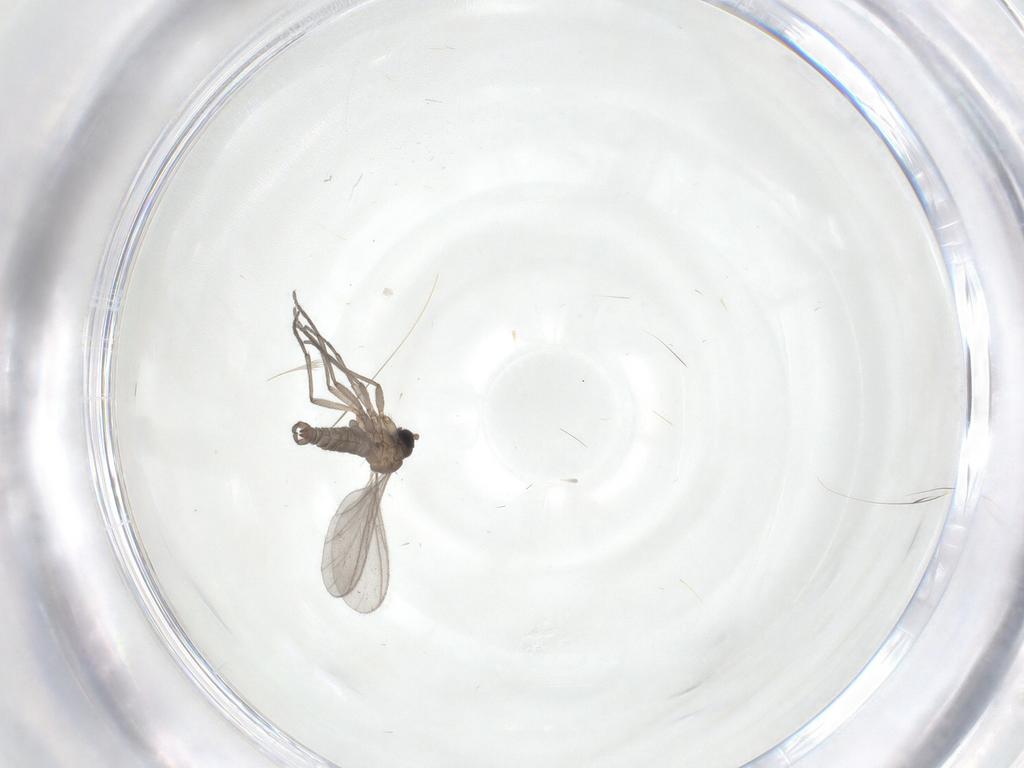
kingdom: Animalia
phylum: Arthropoda
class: Insecta
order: Diptera
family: Sciaridae
